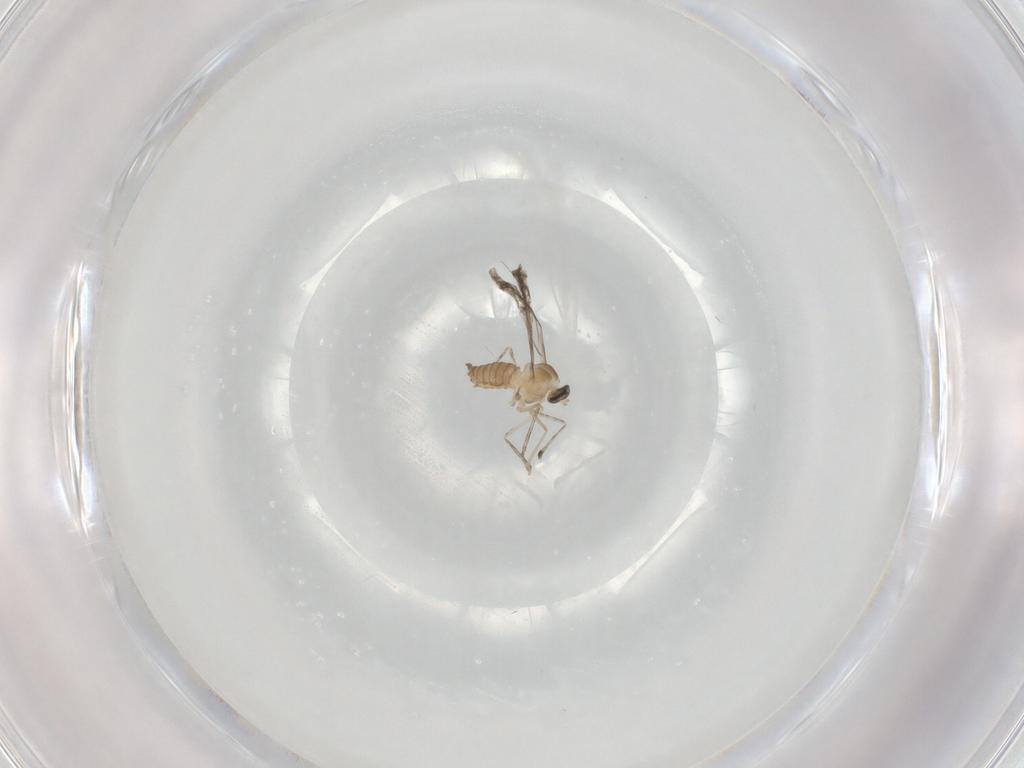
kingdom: Animalia
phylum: Arthropoda
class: Insecta
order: Diptera
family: Cecidomyiidae
